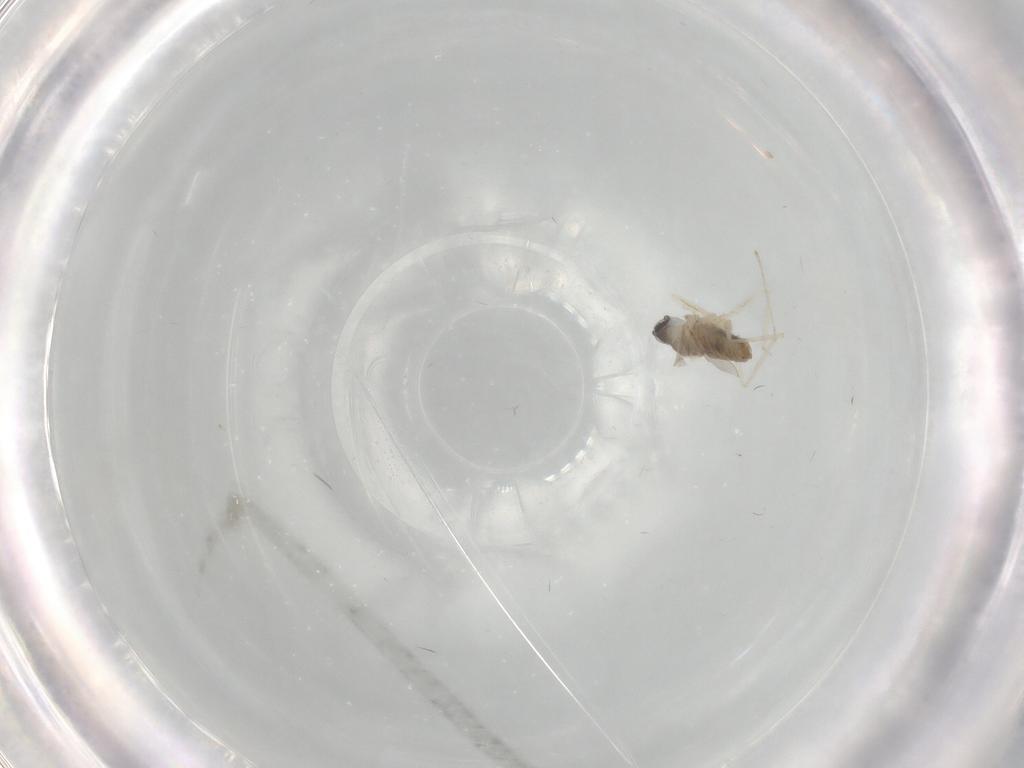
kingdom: Animalia
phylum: Arthropoda
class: Insecta
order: Diptera
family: Cecidomyiidae
